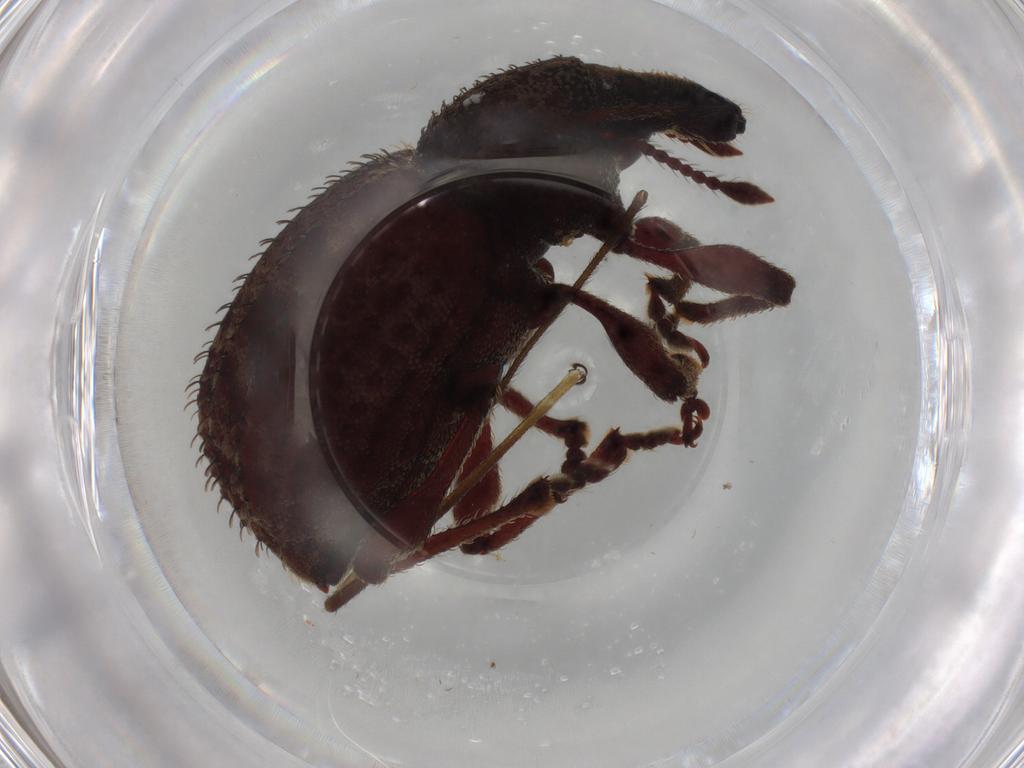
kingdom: Animalia
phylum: Arthropoda
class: Insecta
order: Coleoptera
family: Curculionidae
